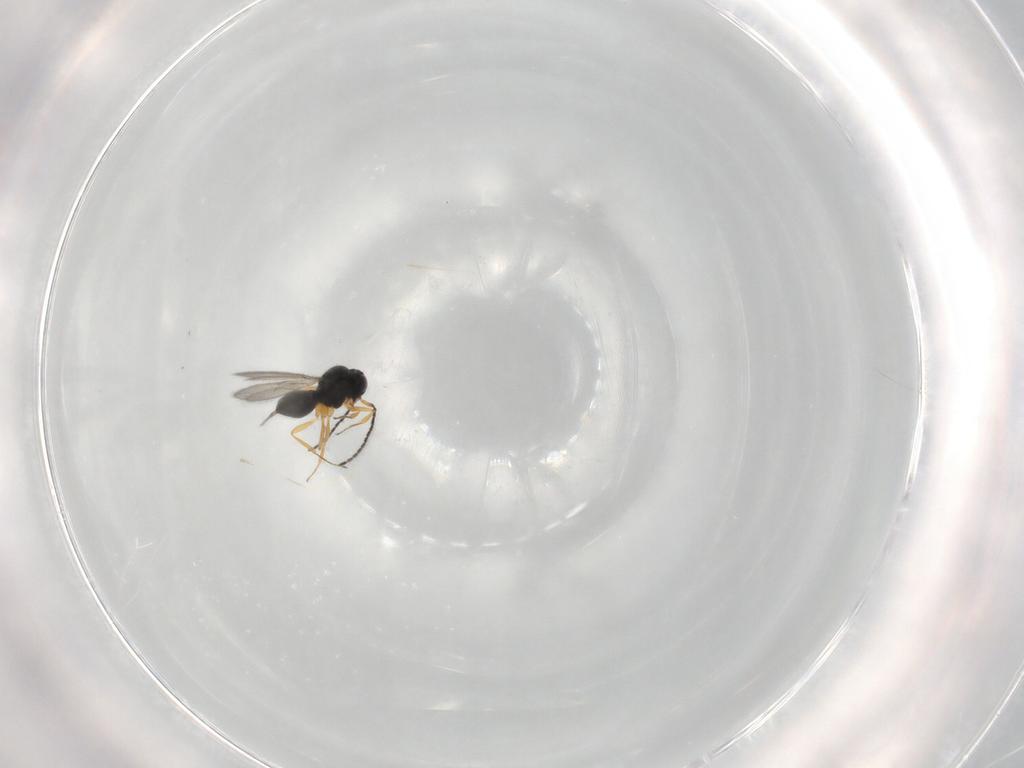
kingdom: Animalia
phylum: Arthropoda
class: Insecta
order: Hymenoptera
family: Scelionidae
